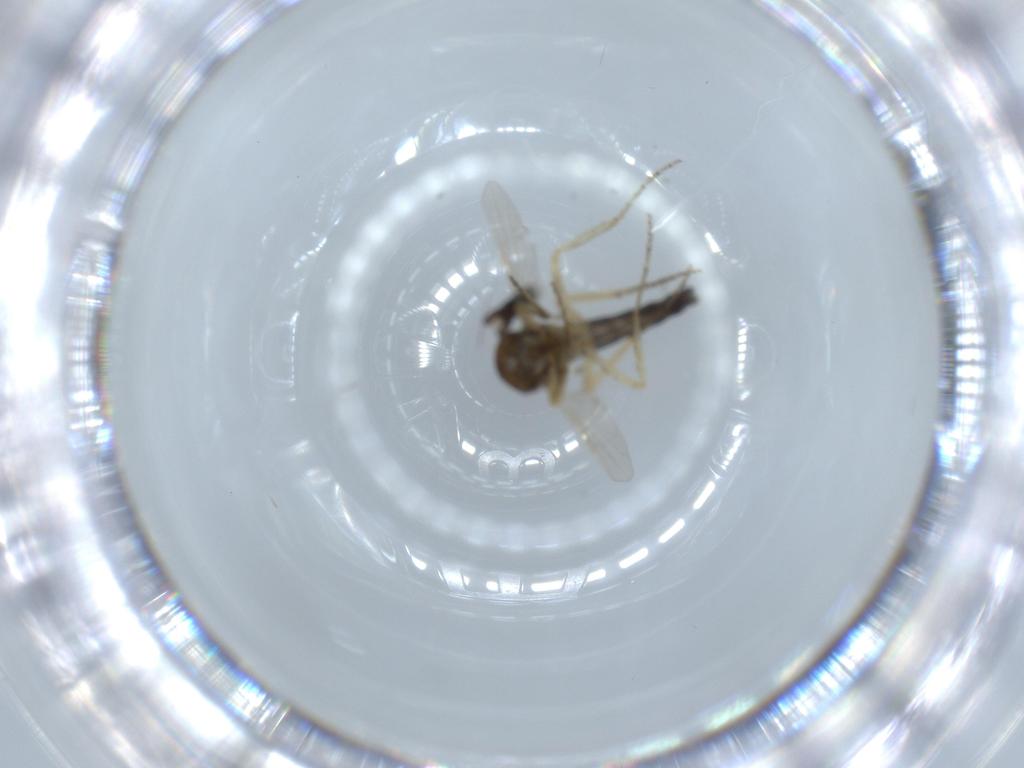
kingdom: Animalia
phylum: Arthropoda
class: Insecta
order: Diptera
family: Ceratopogonidae
